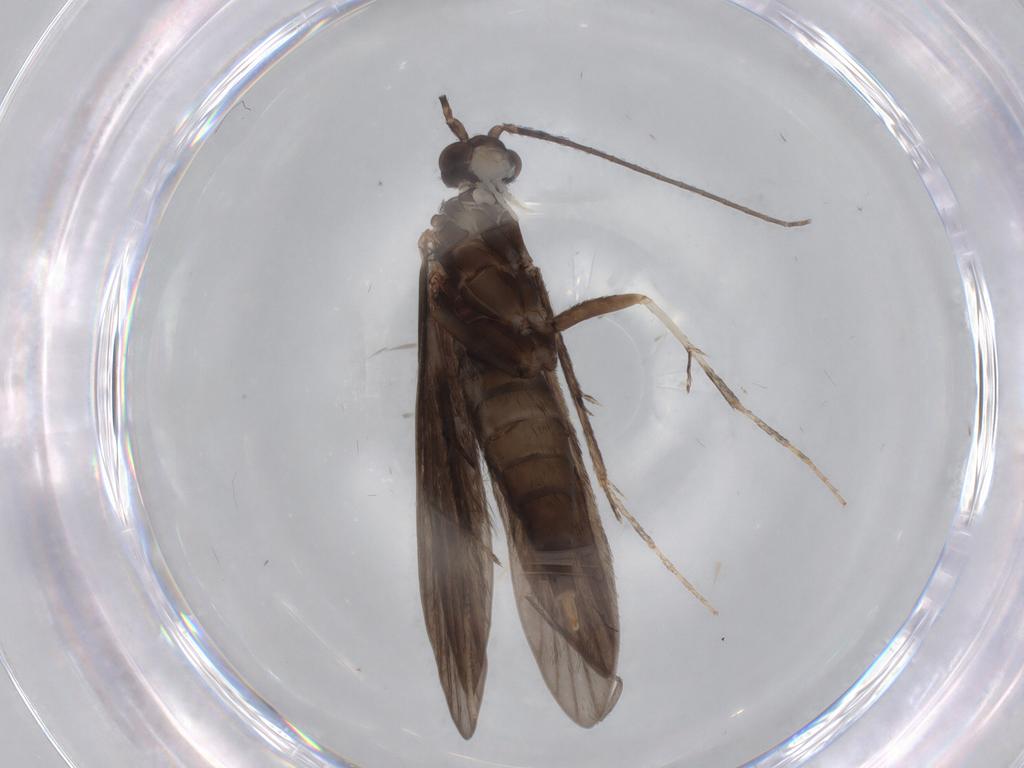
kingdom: Animalia
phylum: Arthropoda
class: Insecta
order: Trichoptera
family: Xiphocentronidae
